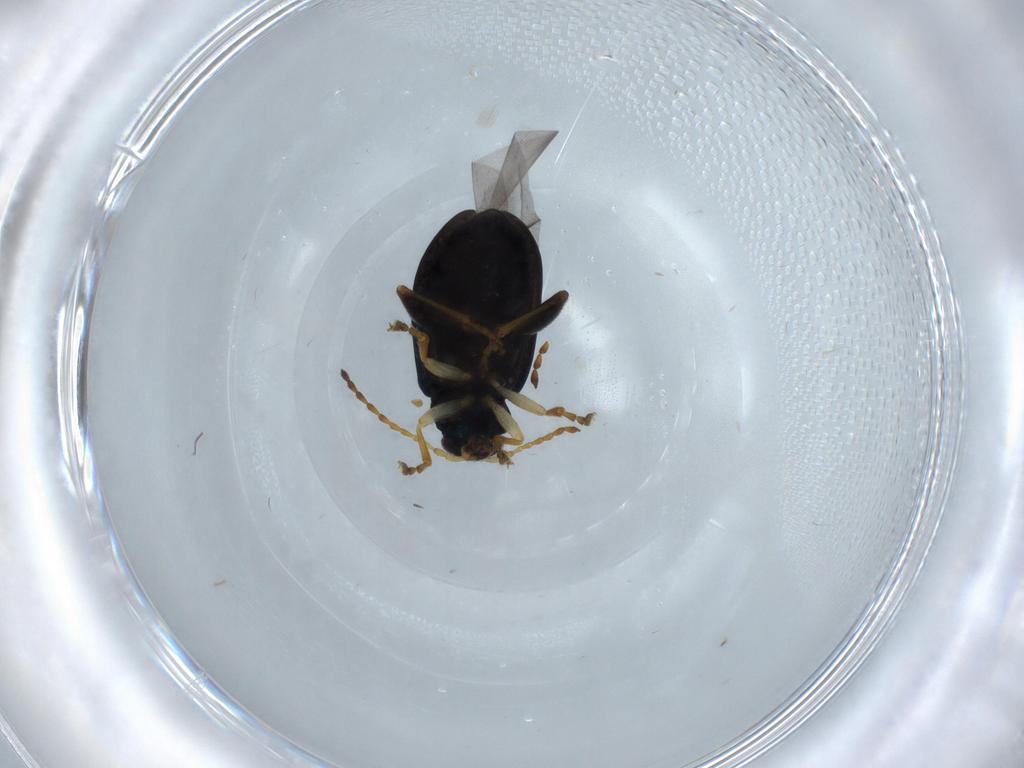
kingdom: Animalia
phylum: Arthropoda
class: Insecta
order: Coleoptera
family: Chrysomelidae
